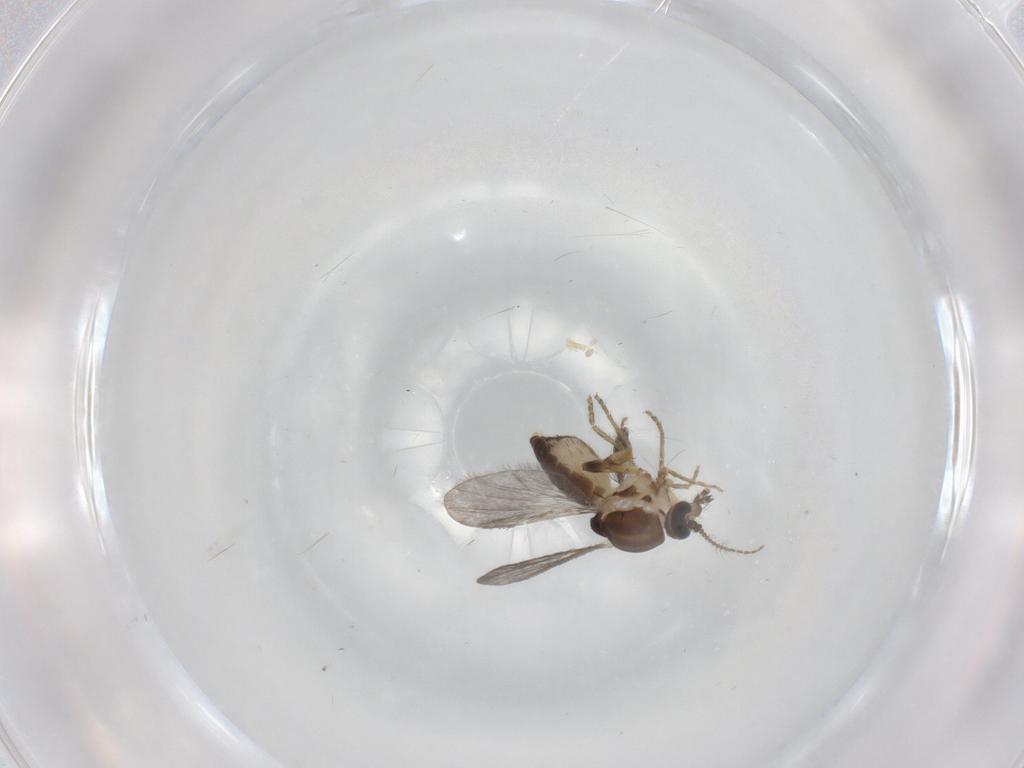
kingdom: Animalia
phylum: Arthropoda
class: Insecta
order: Diptera
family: Ceratopogonidae
